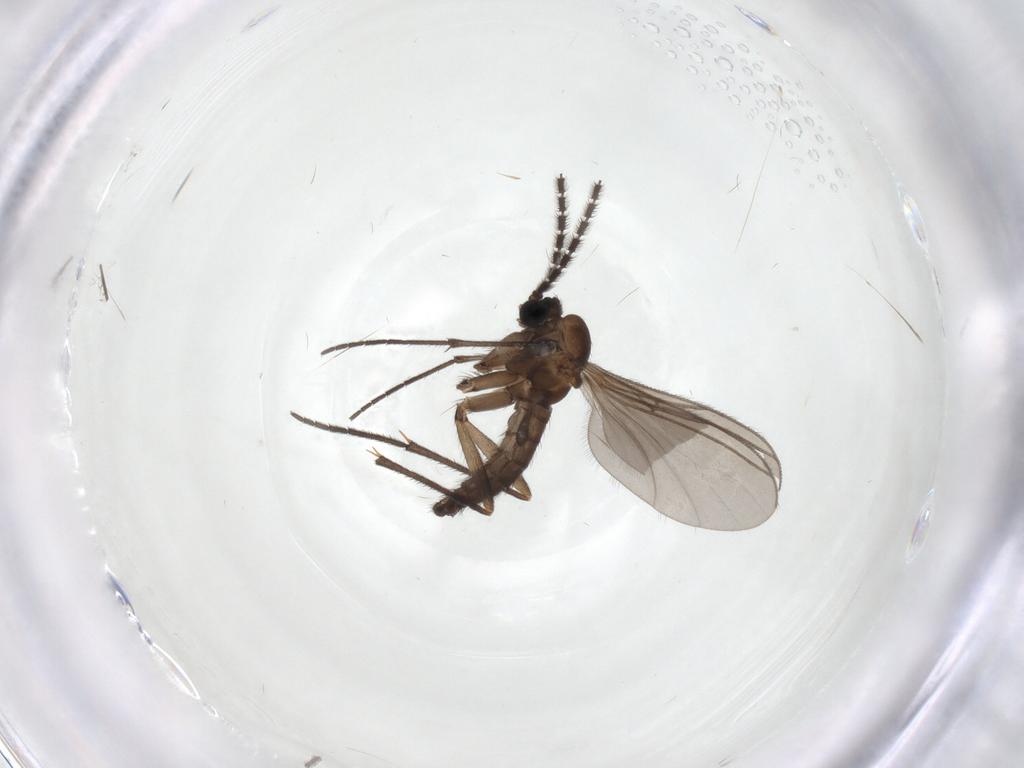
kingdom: Animalia
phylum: Arthropoda
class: Insecta
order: Diptera
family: Sciaridae
